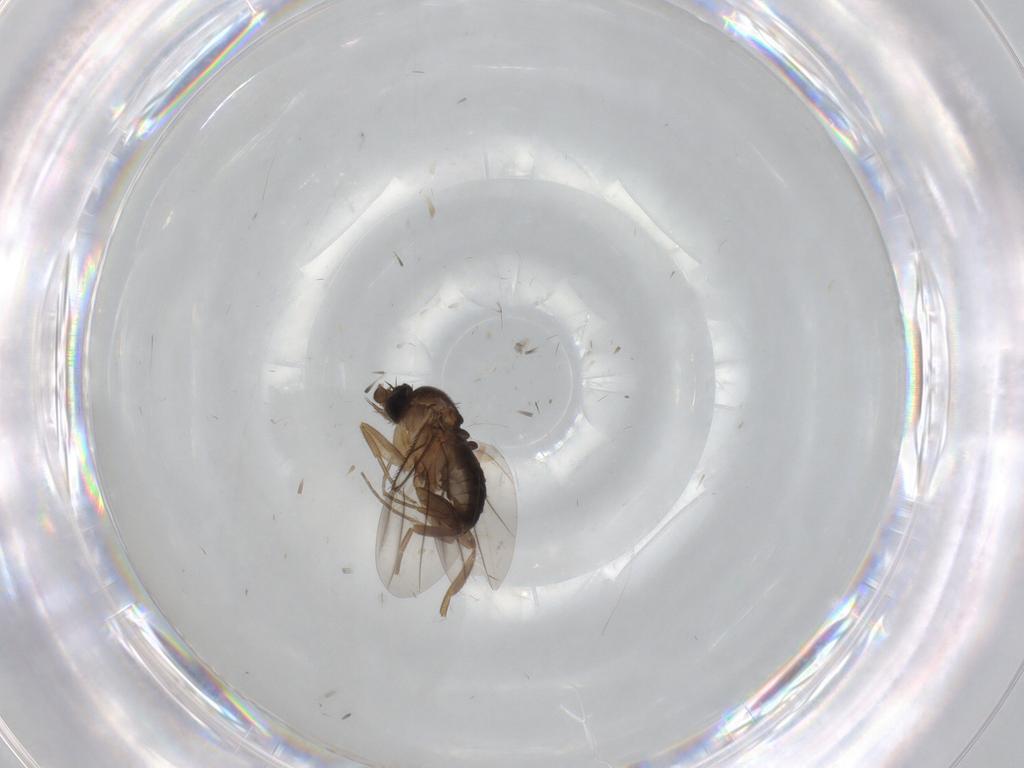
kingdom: Animalia
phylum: Arthropoda
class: Insecta
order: Diptera
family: Phoridae
